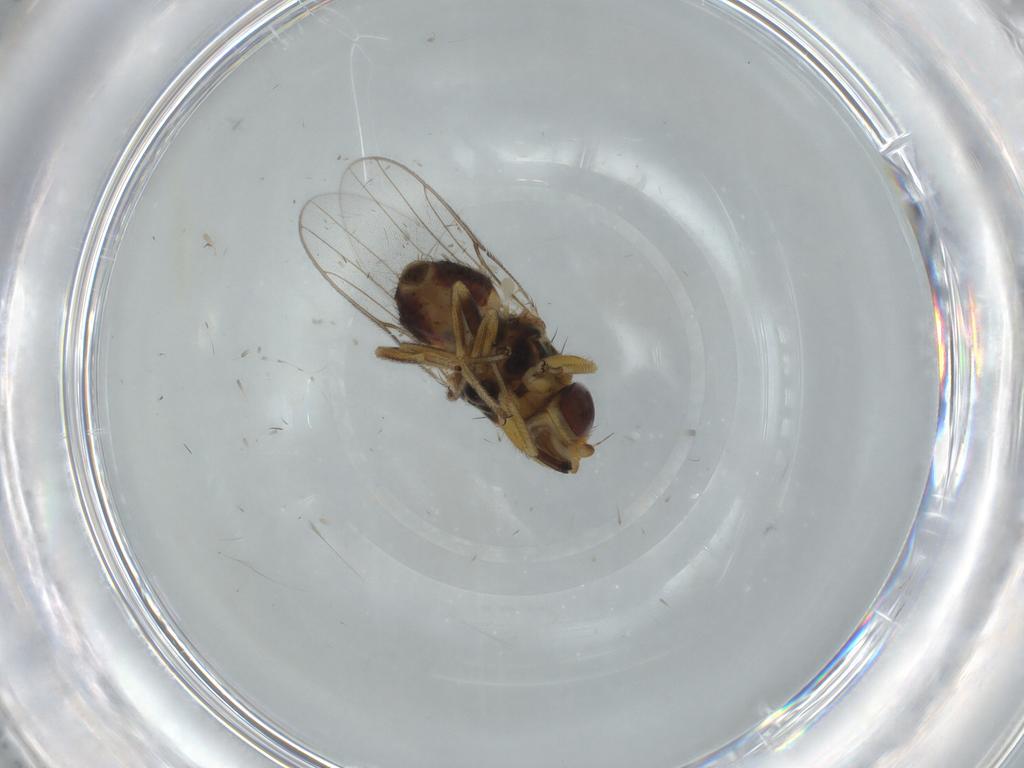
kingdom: Animalia
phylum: Arthropoda
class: Insecta
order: Diptera
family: Chloropidae
